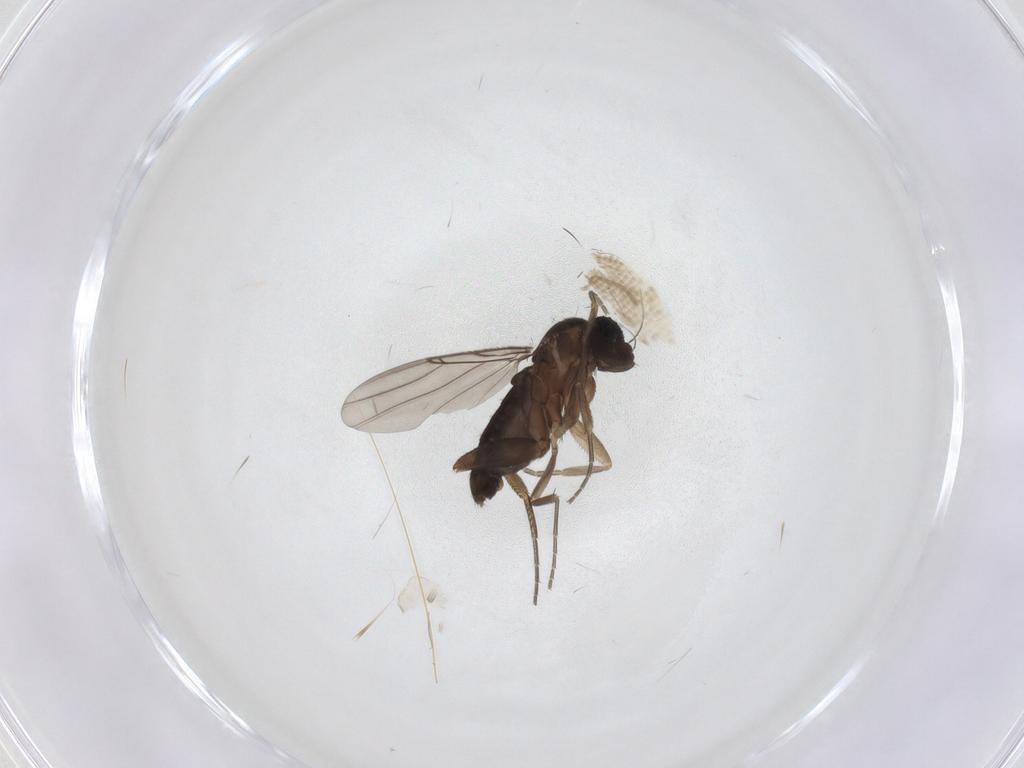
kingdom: Animalia
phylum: Arthropoda
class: Insecta
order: Diptera
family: Phoridae
